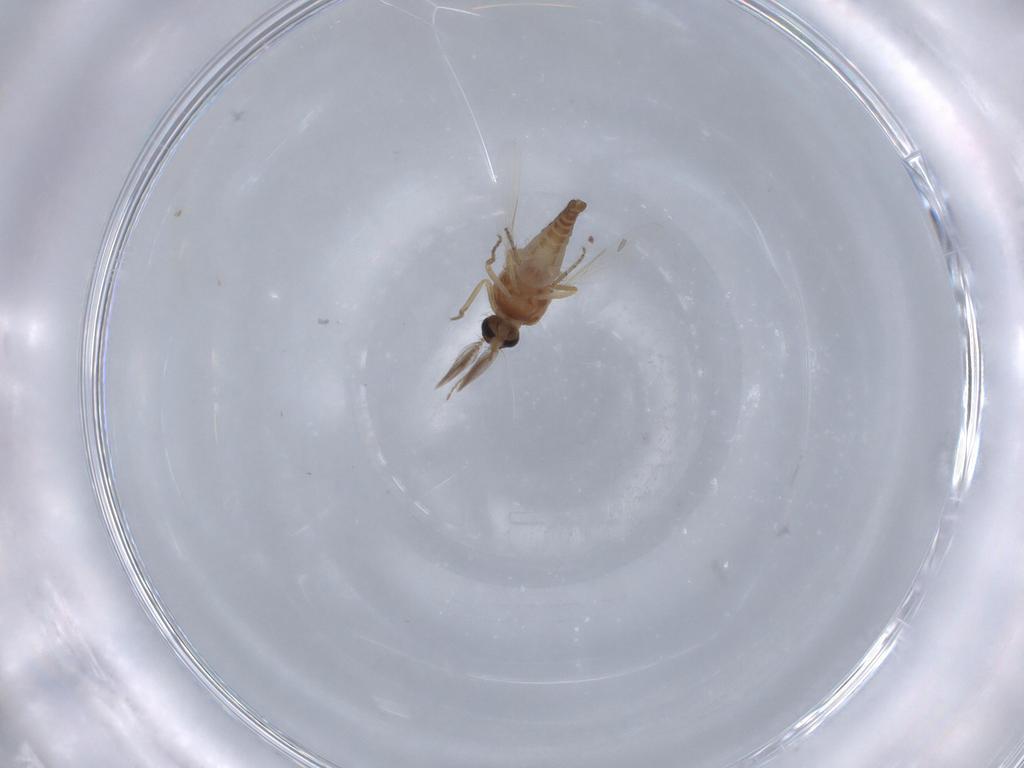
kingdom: Animalia
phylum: Arthropoda
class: Insecta
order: Diptera
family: Ceratopogonidae
